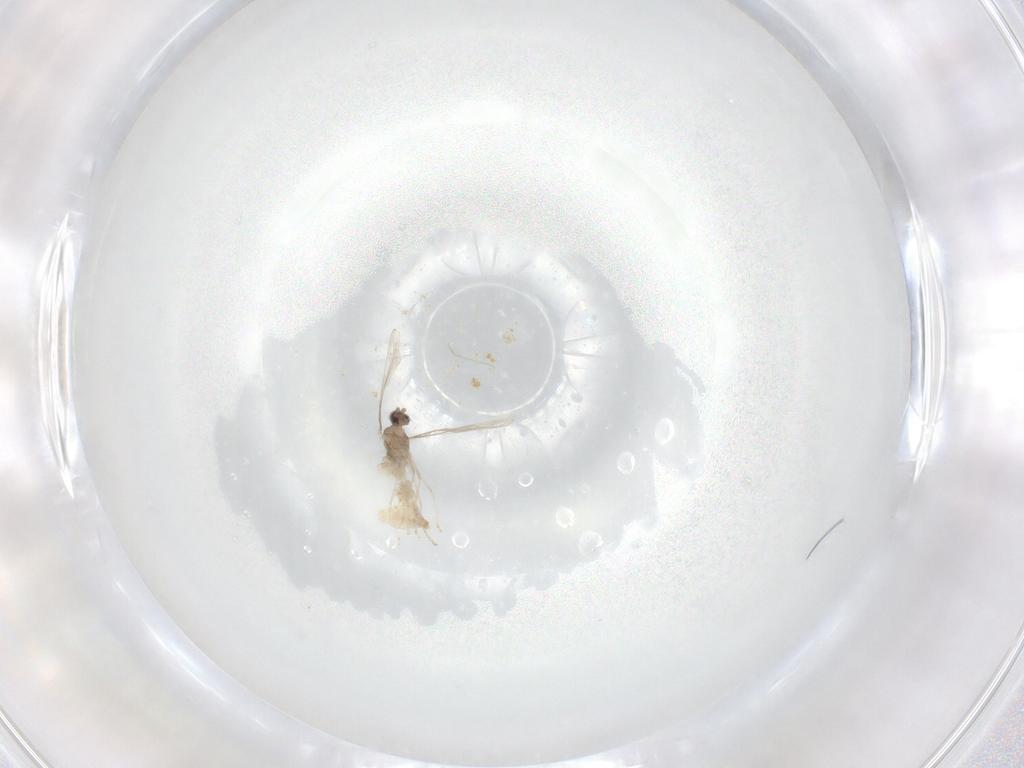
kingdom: Animalia
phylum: Arthropoda
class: Insecta
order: Diptera
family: Cecidomyiidae
